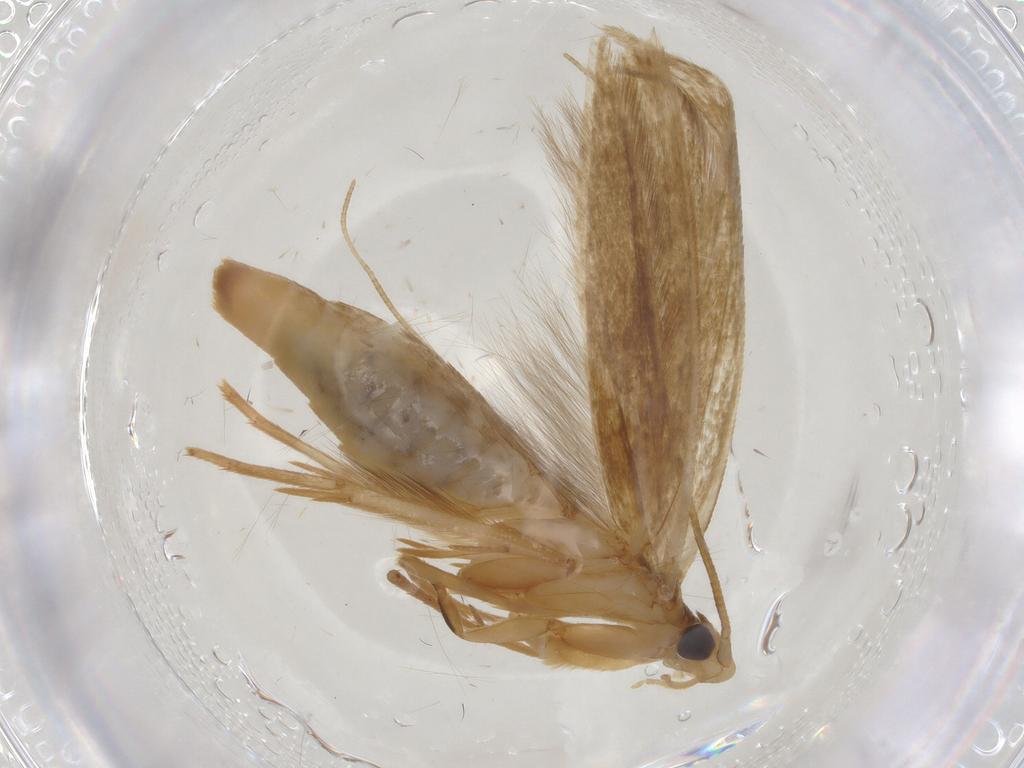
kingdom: Animalia
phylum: Arthropoda
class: Insecta
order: Lepidoptera
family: Tineidae
